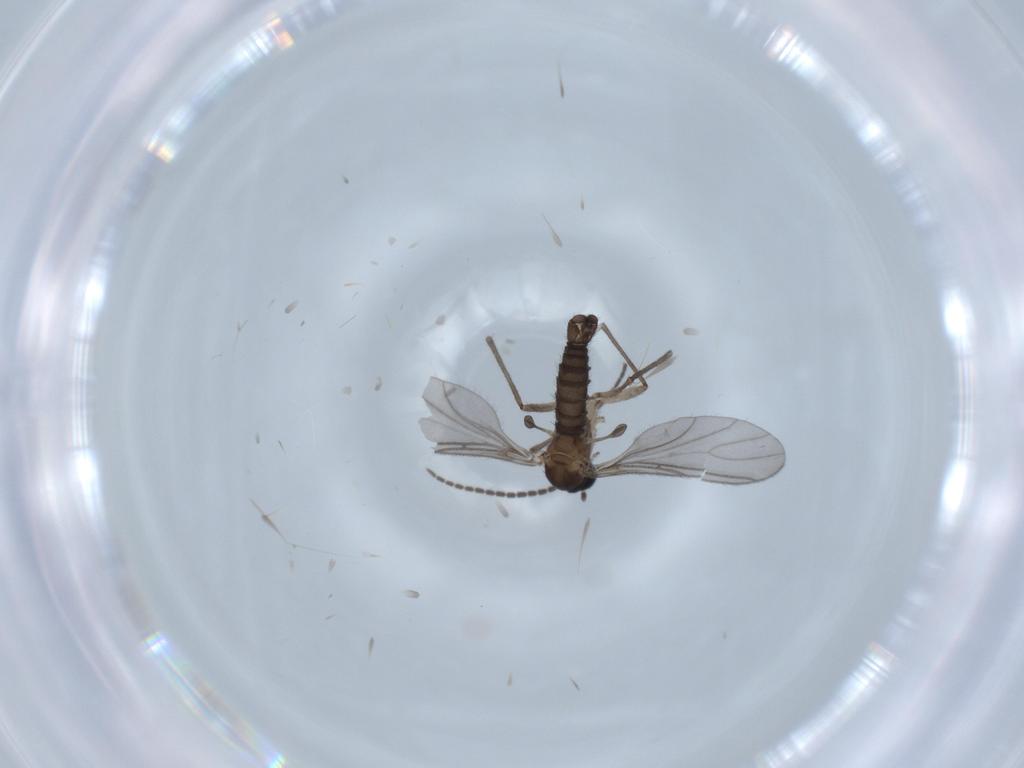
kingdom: Animalia
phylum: Arthropoda
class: Insecta
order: Diptera
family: Sciaridae
